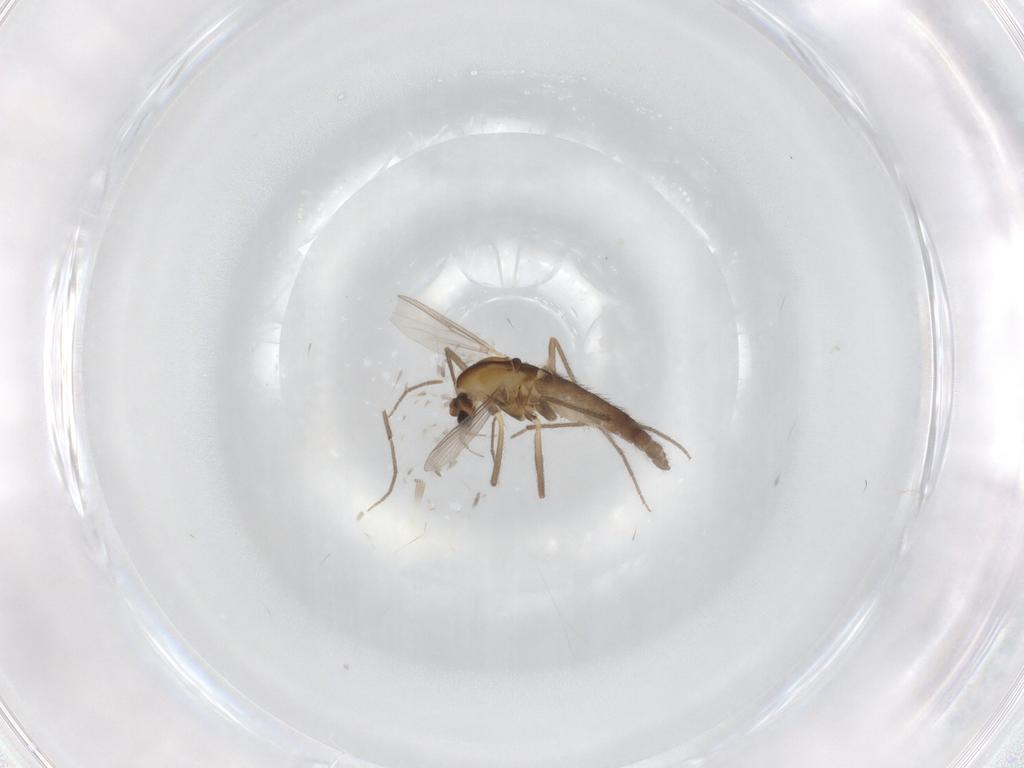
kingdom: Animalia
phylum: Arthropoda
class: Insecta
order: Diptera
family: Chironomidae
